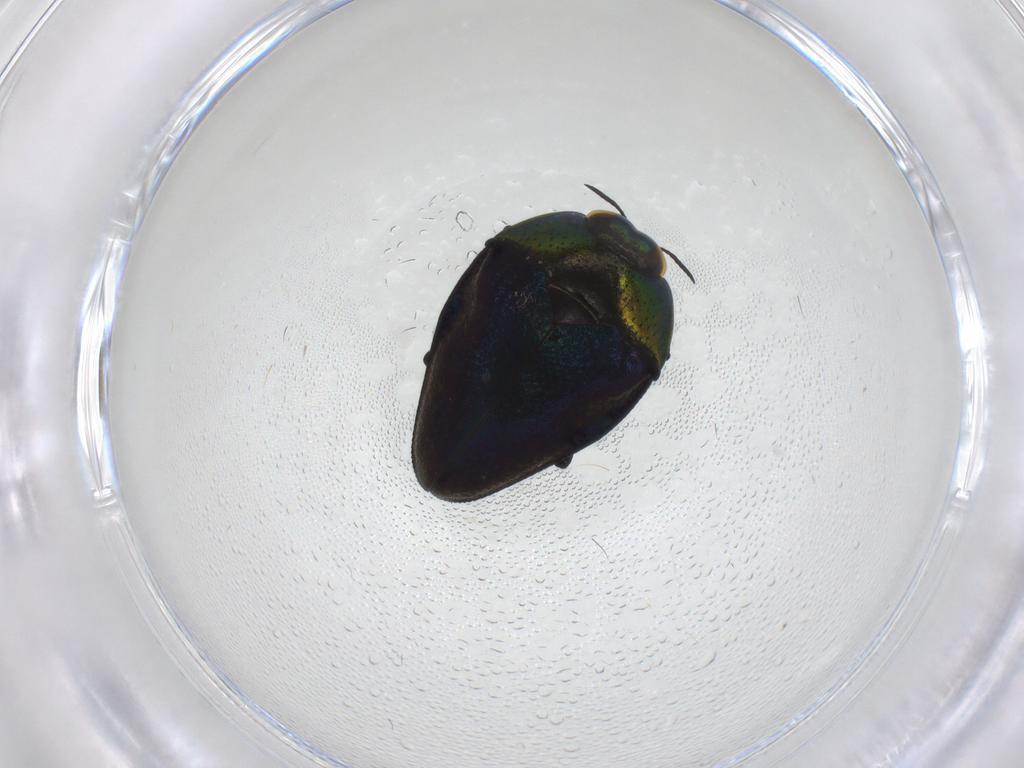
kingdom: Animalia
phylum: Arthropoda
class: Insecta
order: Coleoptera
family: Buprestidae
